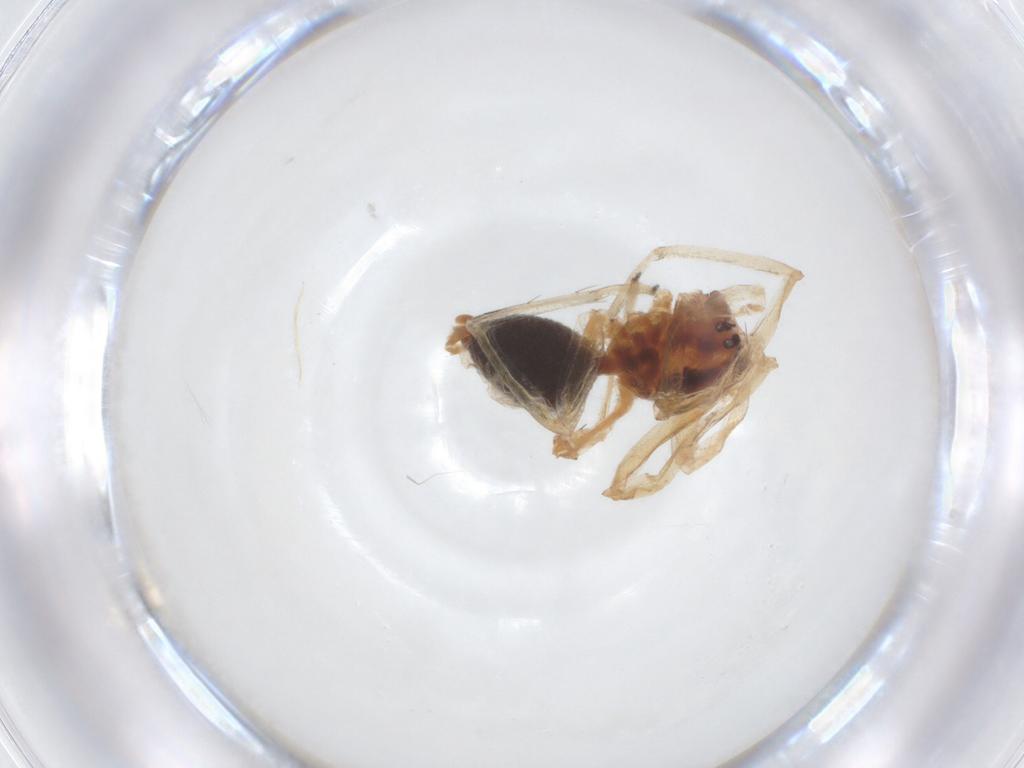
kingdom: Animalia
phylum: Arthropoda
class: Arachnida
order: Araneae
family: Cheiracanthiidae
